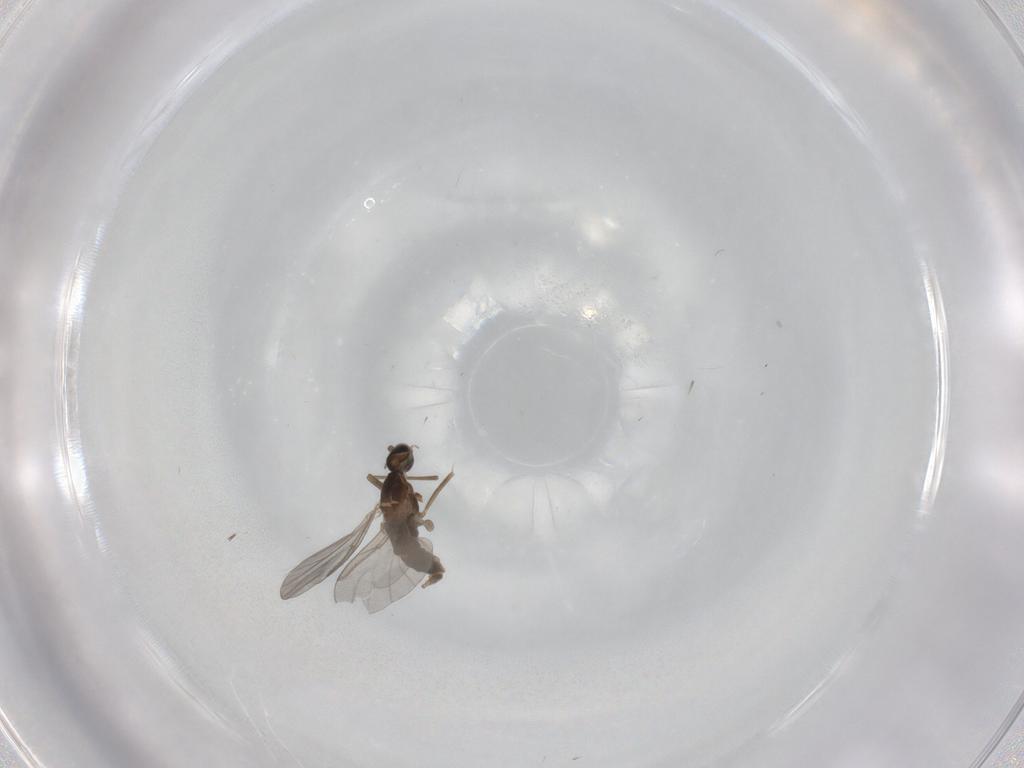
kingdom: Animalia
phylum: Arthropoda
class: Insecta
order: Diptera
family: Cecidomyiidae
